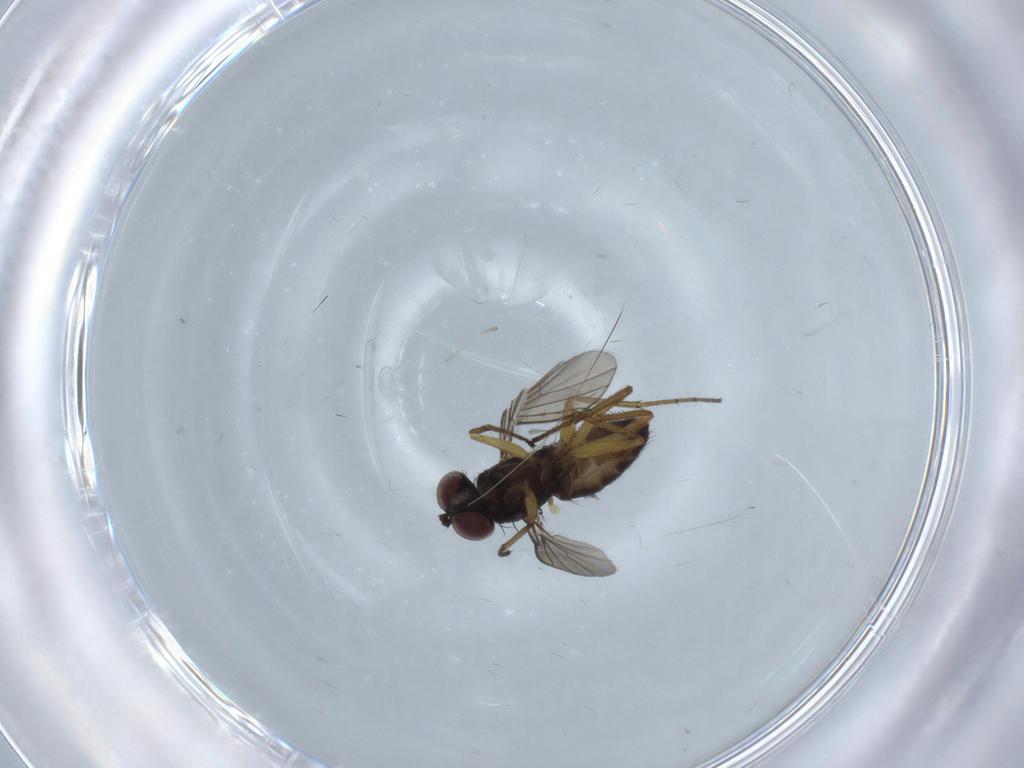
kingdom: Animalia
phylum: Arthropoda
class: Insecta
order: Diptera
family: Dolichopodidae
